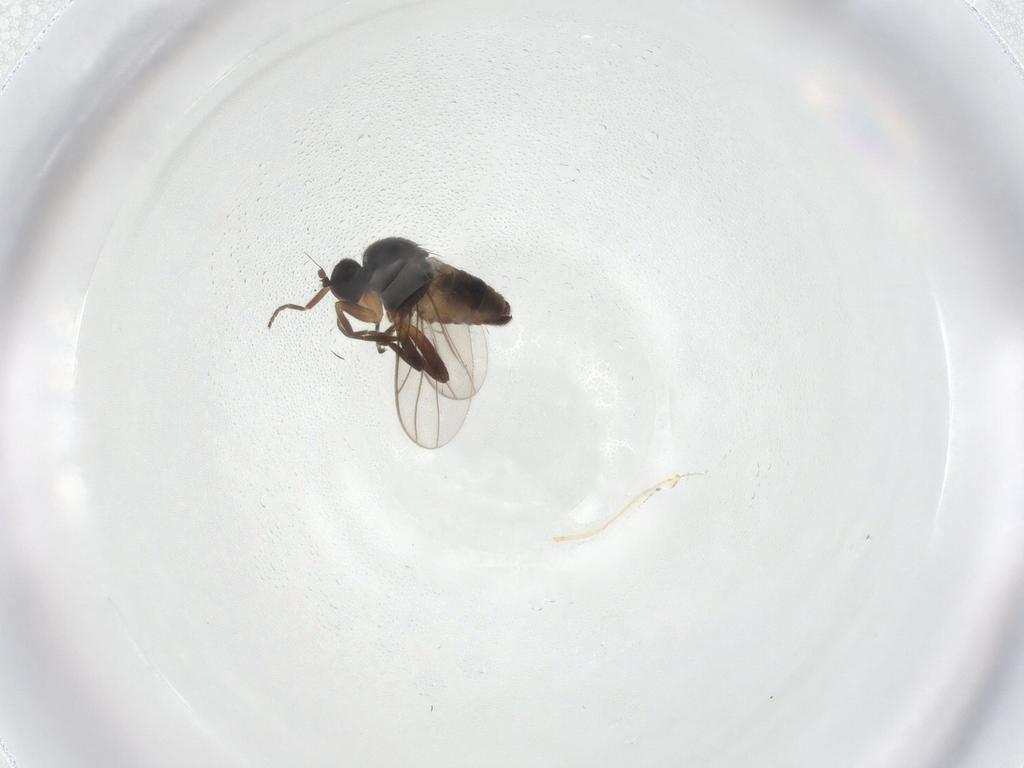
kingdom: Animalia
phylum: Arthropoda
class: Insecta
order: Diptera
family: Hybotidae
